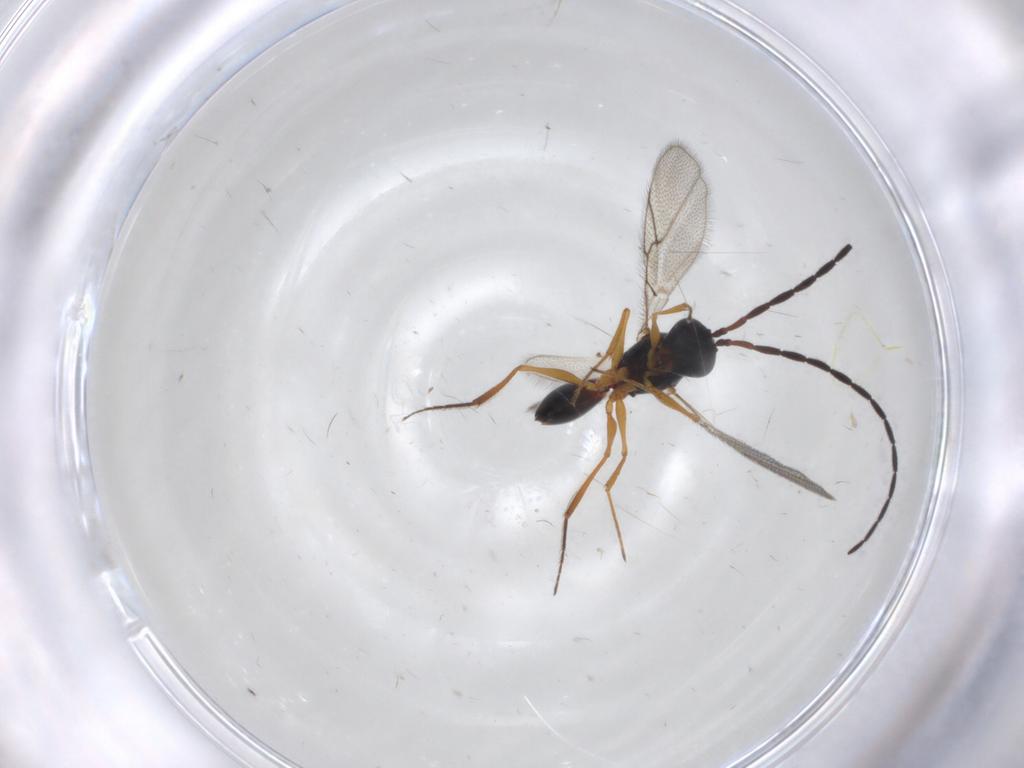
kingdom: Animalia
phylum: Arthropoda
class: Insecta
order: Hymenoptera
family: Figitidae
